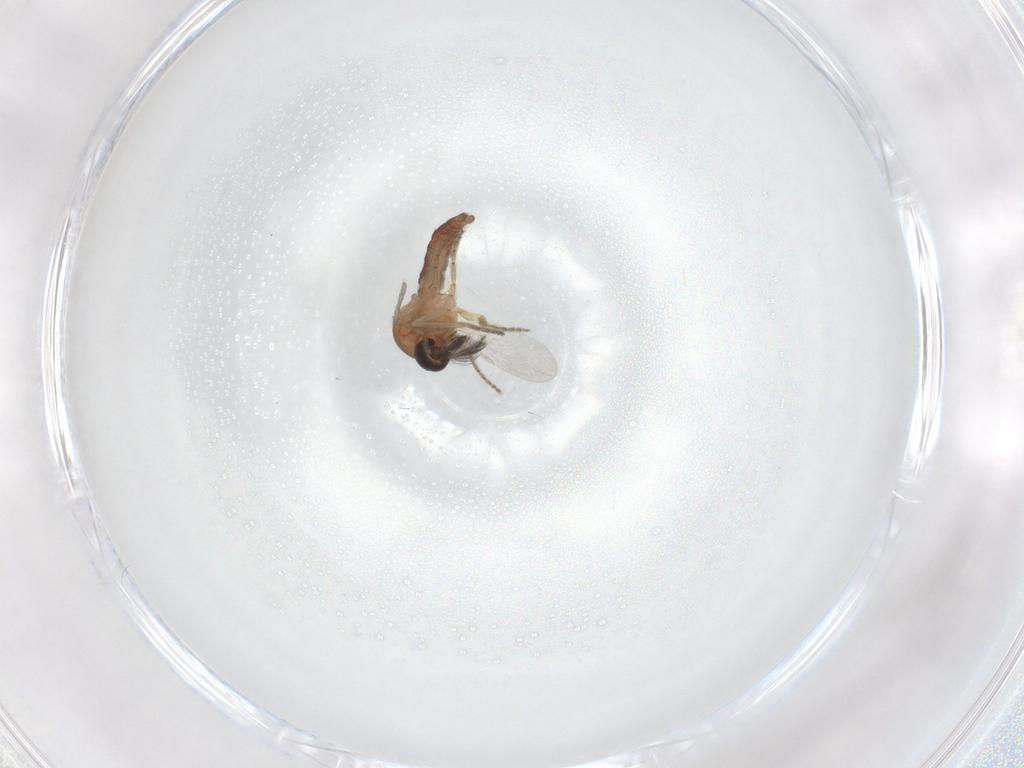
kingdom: Animalia
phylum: Arthropoda
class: Insecta
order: Diptera
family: Ceratopogonidae
